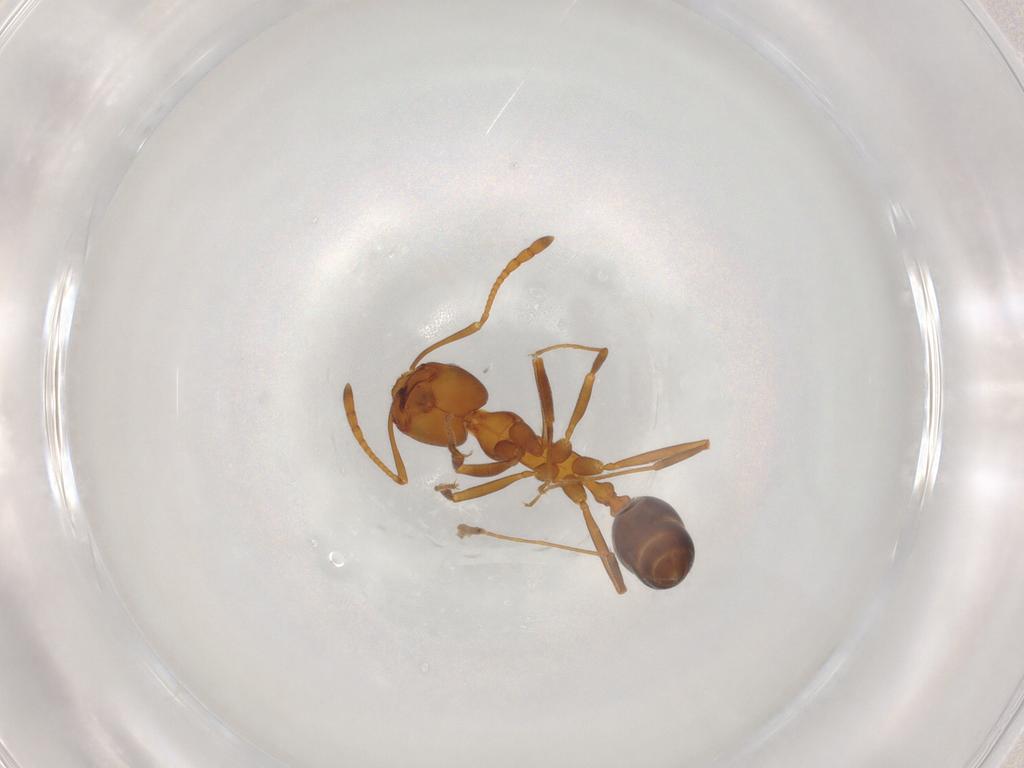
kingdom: Animalia
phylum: Arthropoda
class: Insecta
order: Hymenoptera
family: Formicidae
